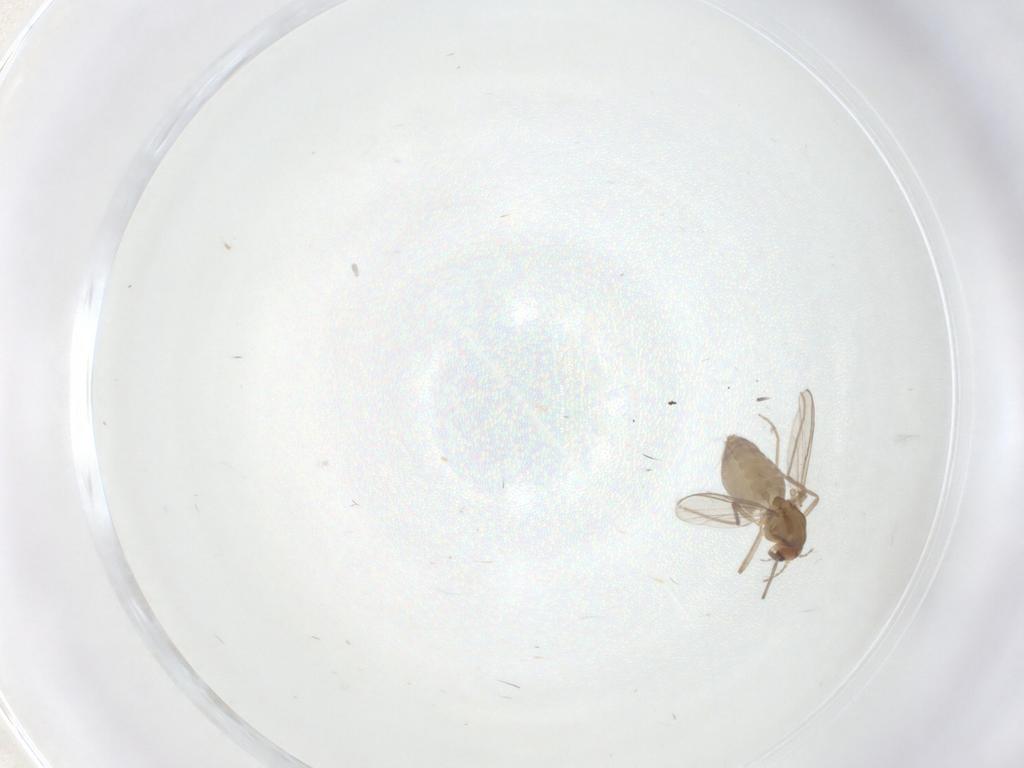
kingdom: Animalia
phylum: Arthropoda
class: Insecta
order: Diptera
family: Chironomidae
